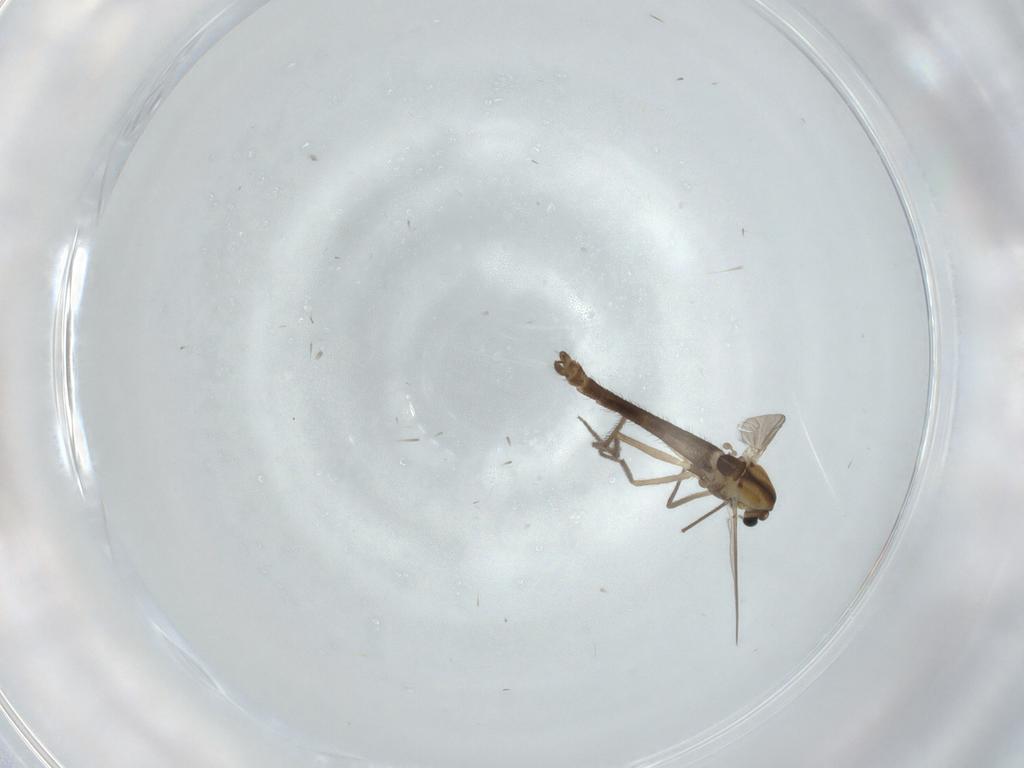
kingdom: Animalia
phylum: Arthropoda
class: Insecta
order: Diptera
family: Chironomidae
